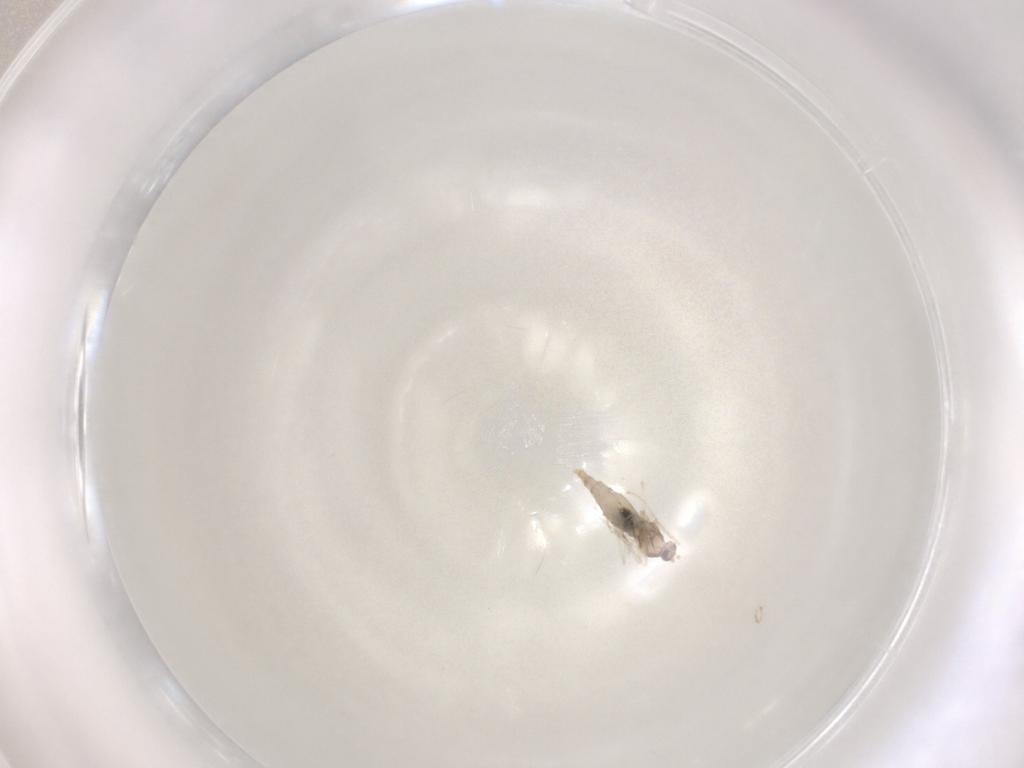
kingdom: Animalia
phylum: Arthropoda
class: Insecta
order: Diptera
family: Cecidomyiidae
